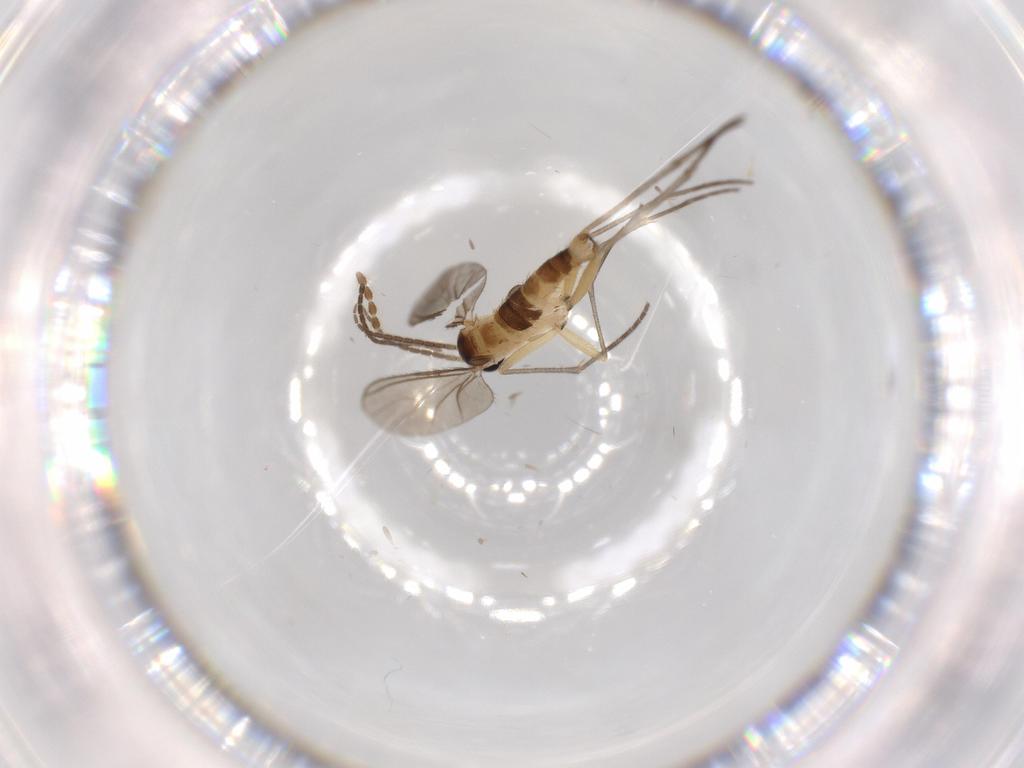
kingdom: Animalia
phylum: Arthropoda
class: Insecta
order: Diptera
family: Sciaridae
